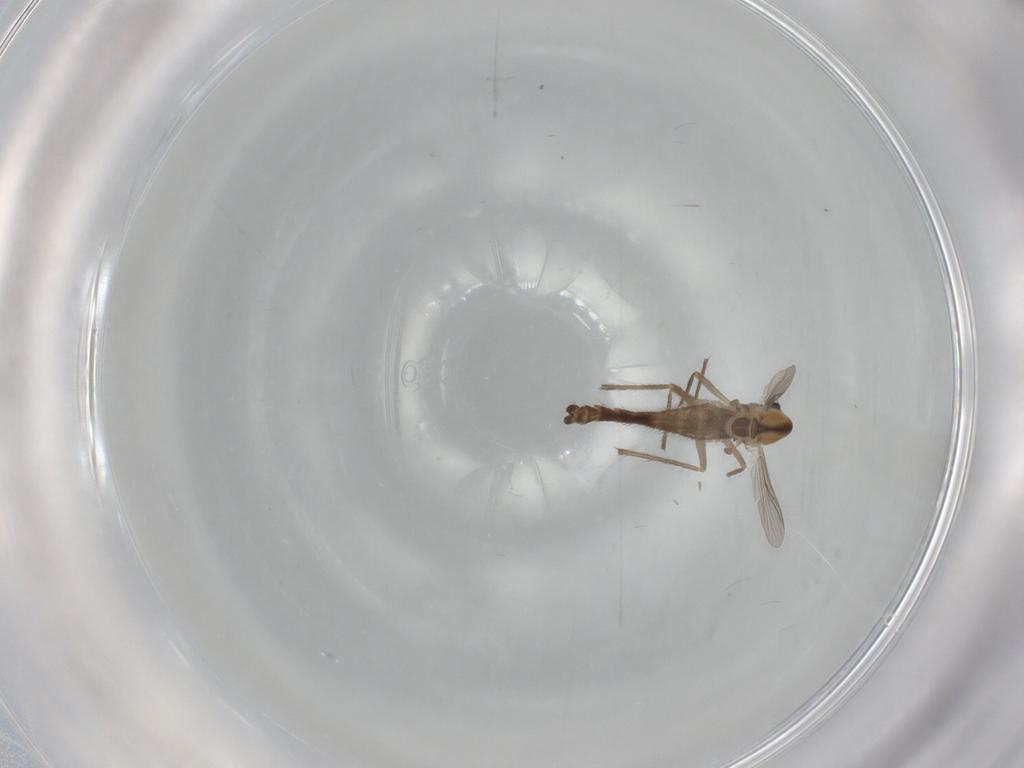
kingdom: Animalia
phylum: Arthropoda
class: Insecta
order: Diptera
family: Chironomidae
